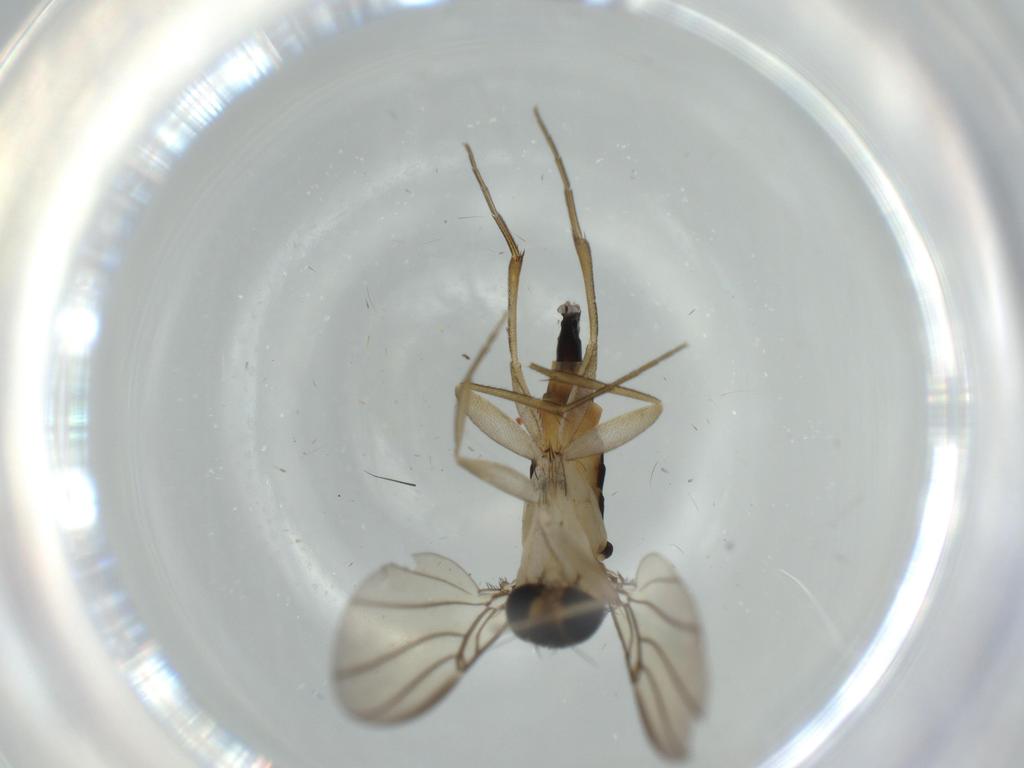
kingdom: Animalia
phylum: Arthropoda
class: Insecta
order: Diptera
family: Phoridae
